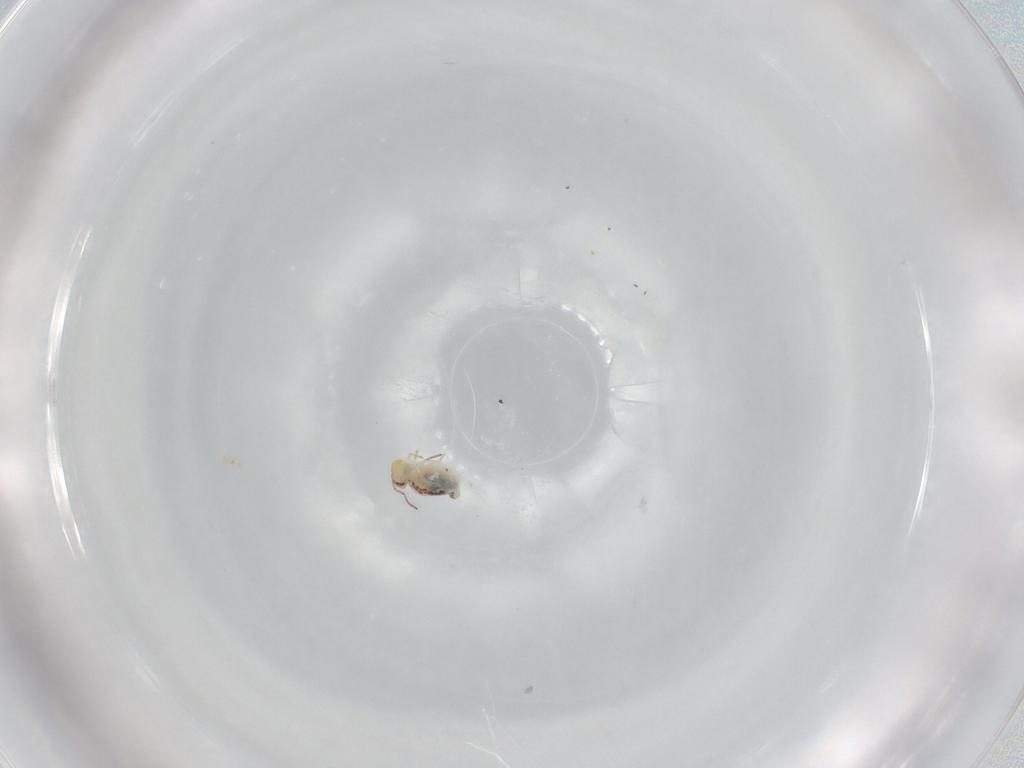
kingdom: Animalia
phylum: Arthropoda
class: Collembola
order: Symphypleona
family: Bourletiellidae
